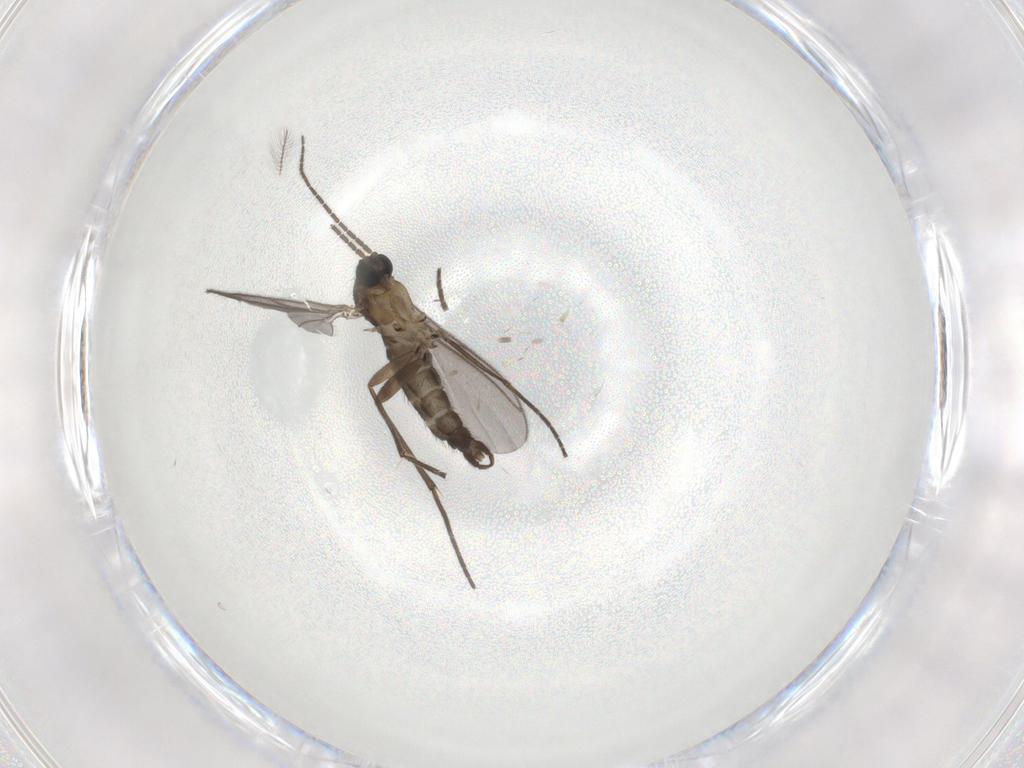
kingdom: Animalia
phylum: Arthropoda
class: Insecta
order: Diptera
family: Sciaridae
